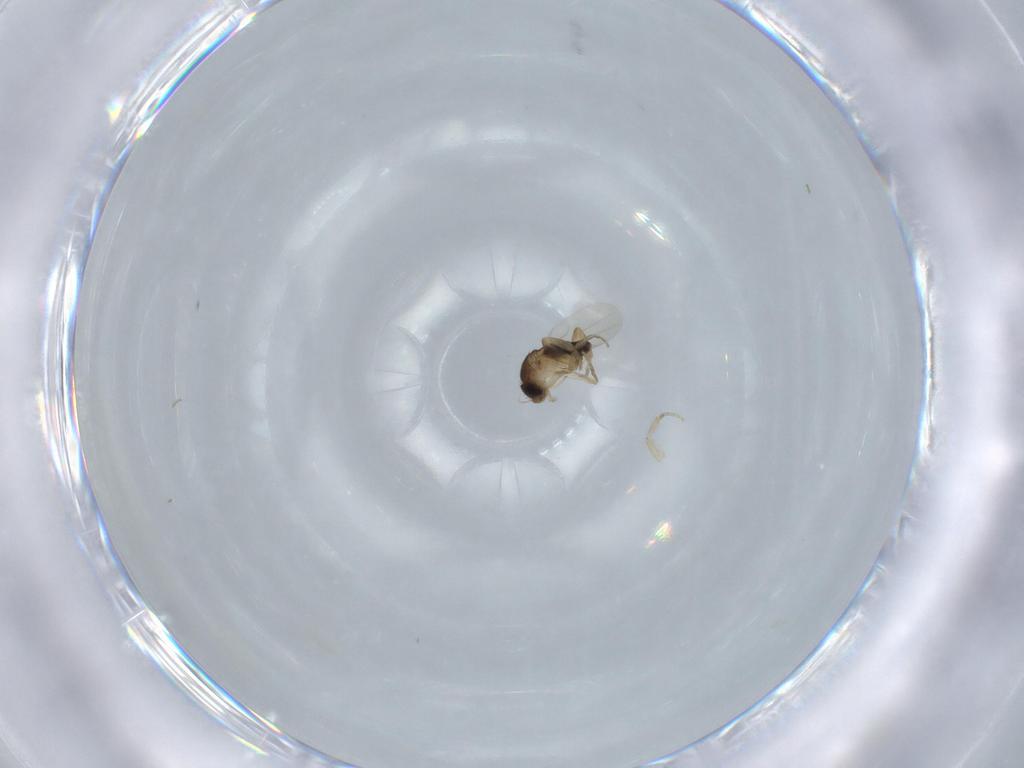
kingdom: Animalia
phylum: Arthropoda
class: Insecta
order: Diptera
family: Phoridae
